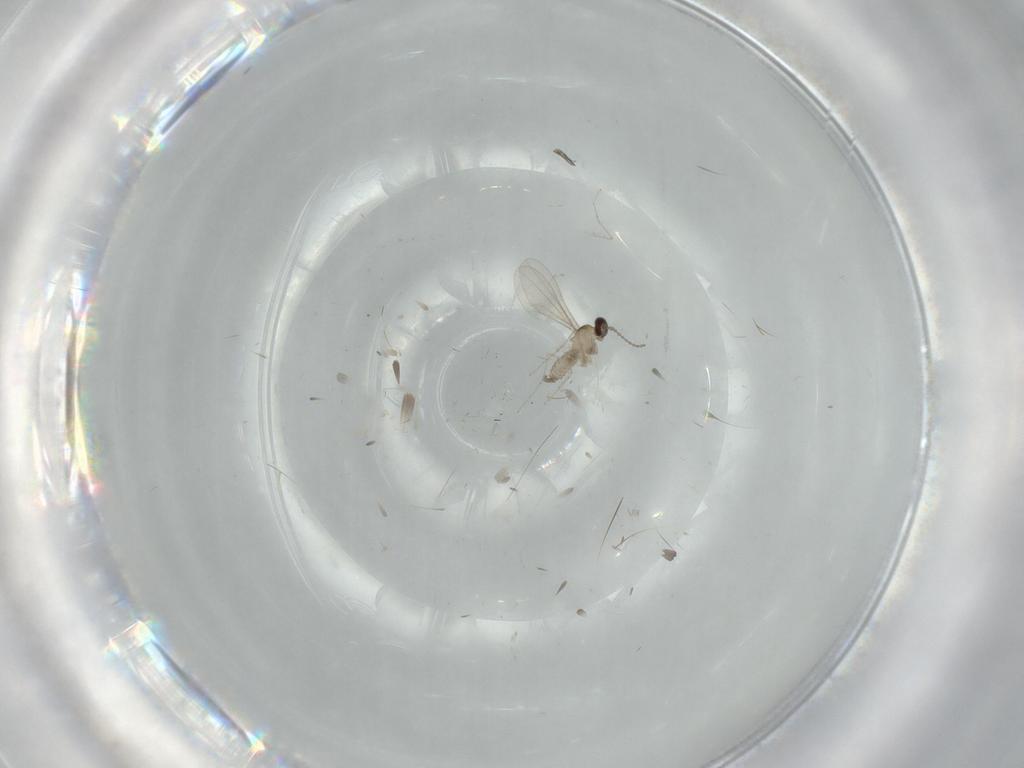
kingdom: Animalia
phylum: Arthropoda
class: Insecta
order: Diptera
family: Cecidomyiidae
